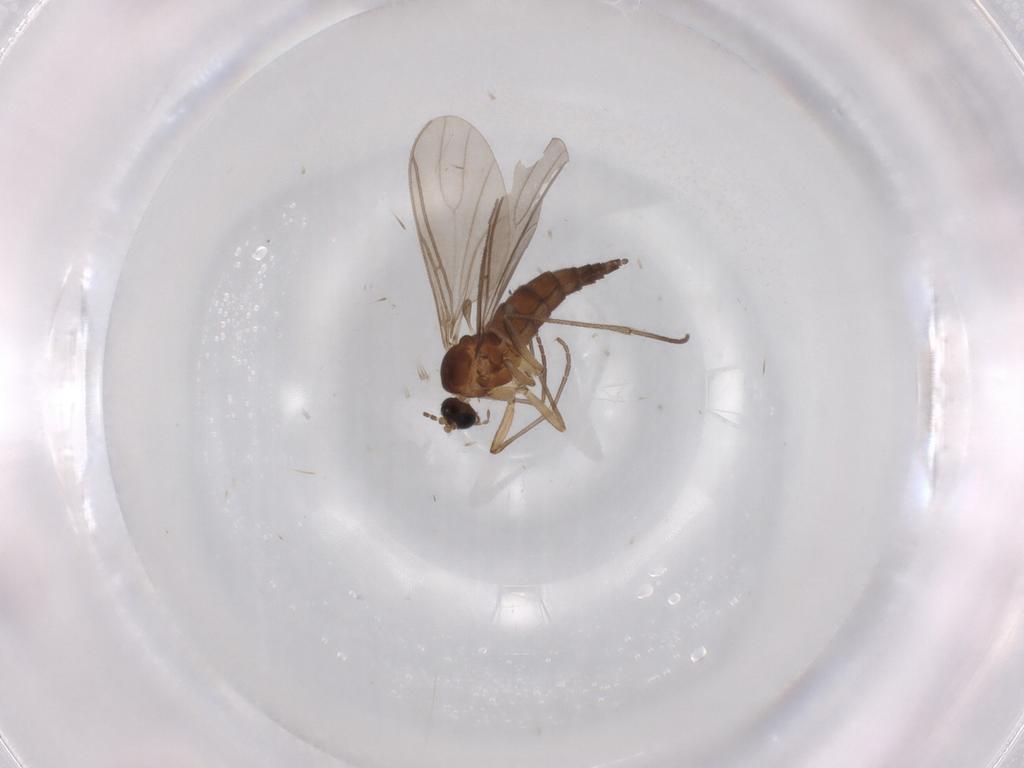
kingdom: Animalia
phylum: Arthropoda
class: Insecta
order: Diptera
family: Sciaridae
